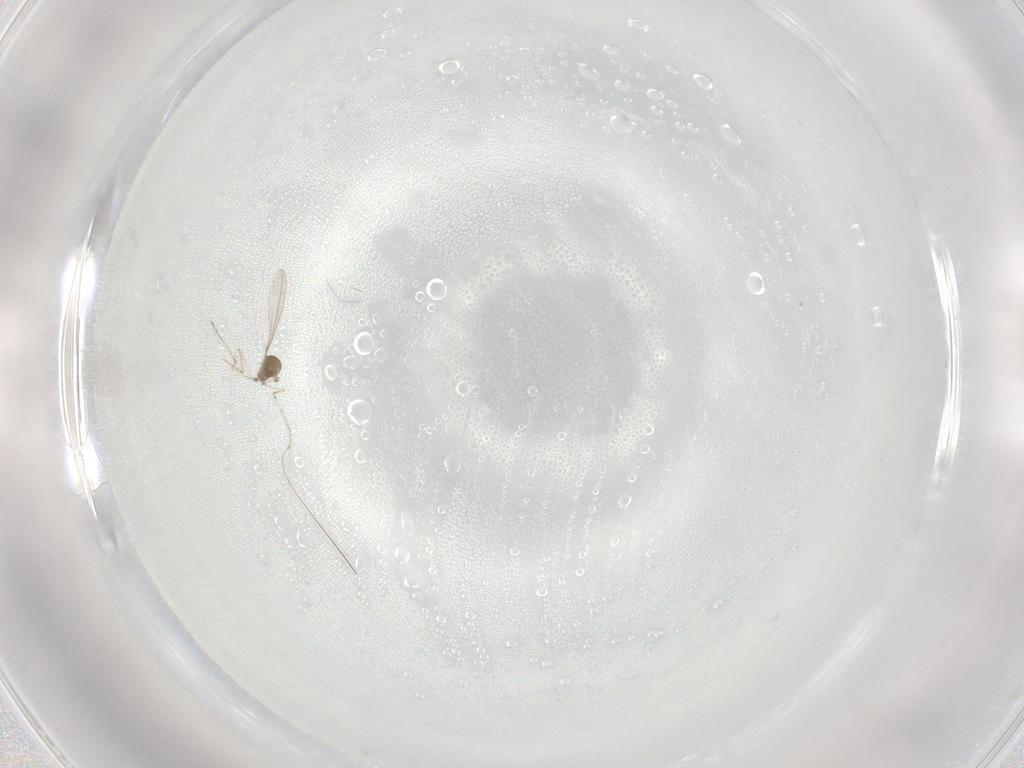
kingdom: Animalia
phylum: Arthropoda
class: Insecta
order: Diptera
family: Cecidomyiidae
